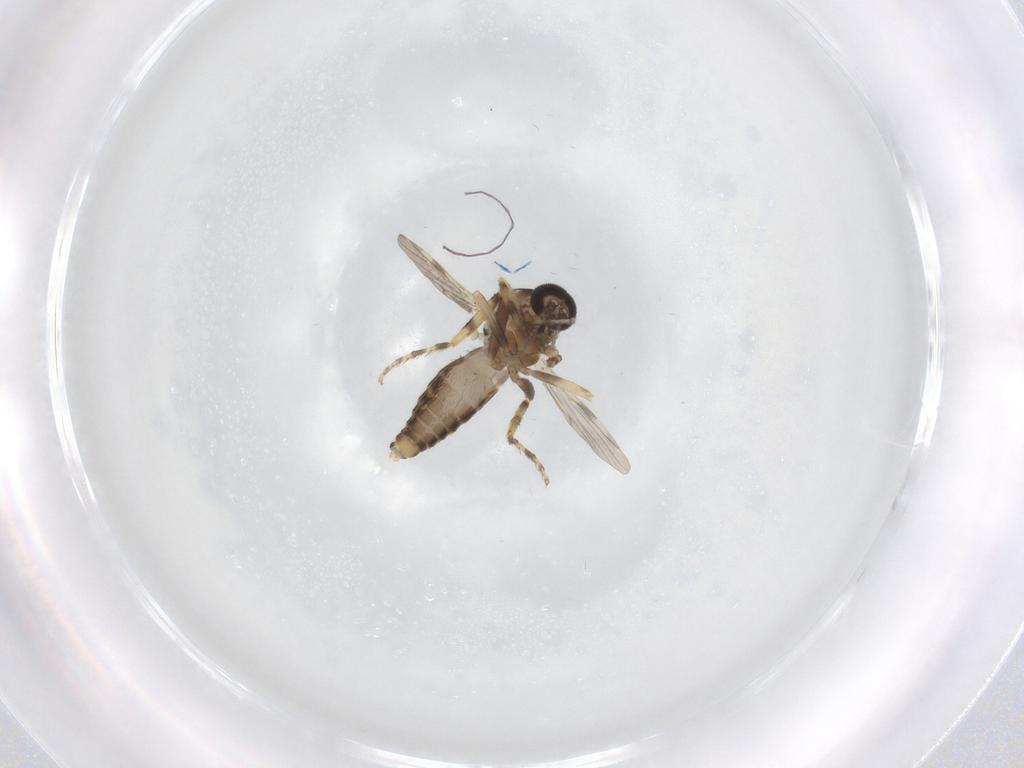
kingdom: Animalia
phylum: Arthropoda
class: Insecta
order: Diptera
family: Ceratopogonidae
